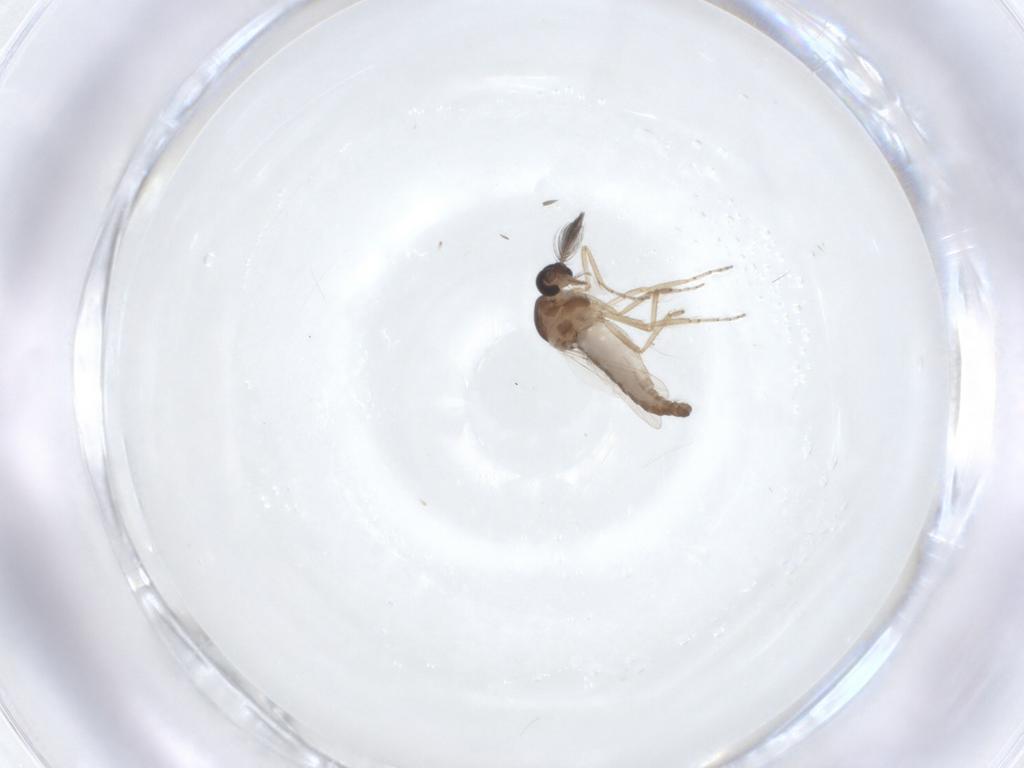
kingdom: Animalia
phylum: Arthropoda
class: Insecta
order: Diptera
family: Ceratopogonidae
